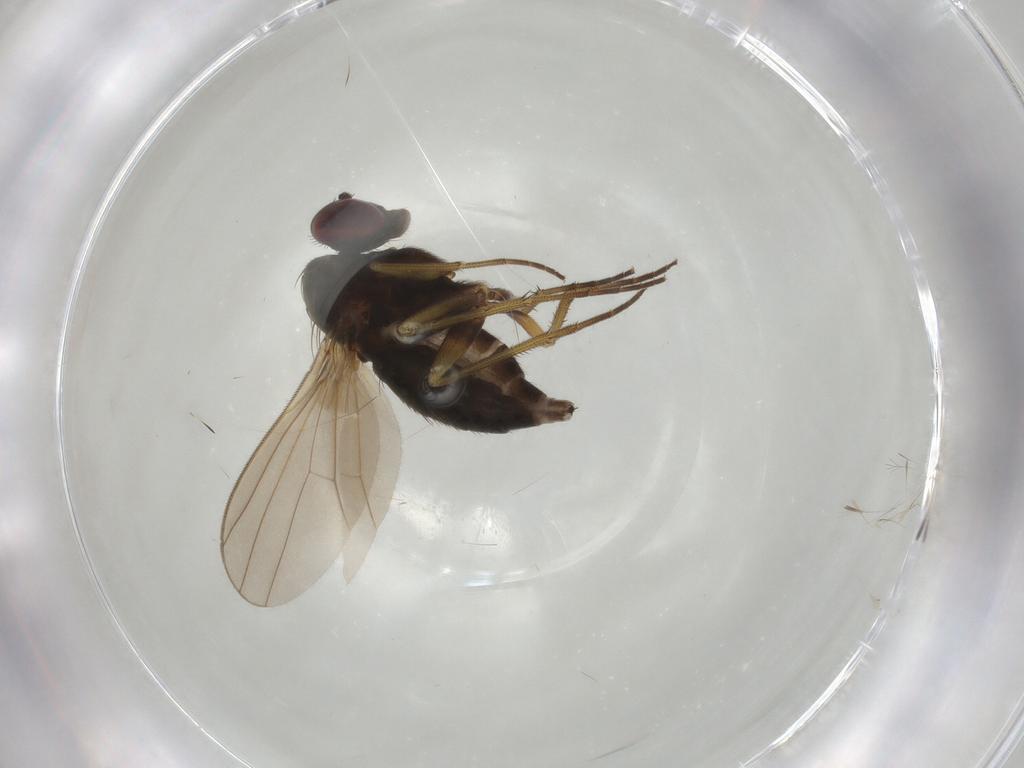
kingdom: Animalia
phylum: Arthropoda
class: Insecta
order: Diptera
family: Dolichopodidae
